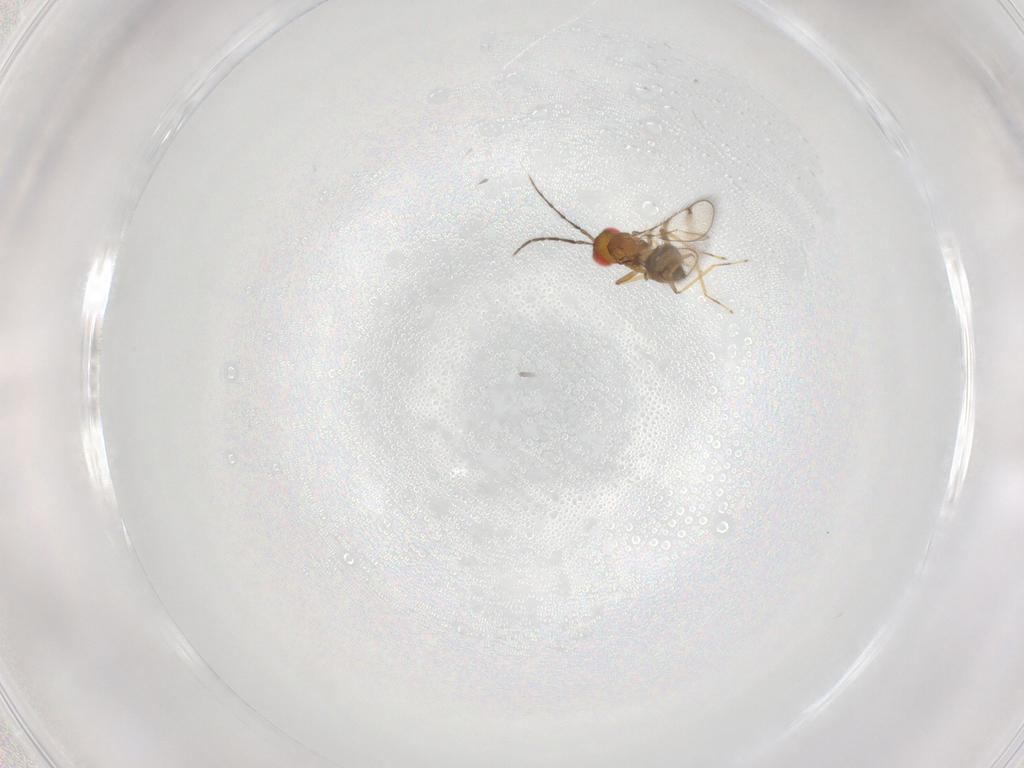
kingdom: Animalia
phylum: Arthropoda
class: Insecta
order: Hymenoptera
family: Eulophidae
